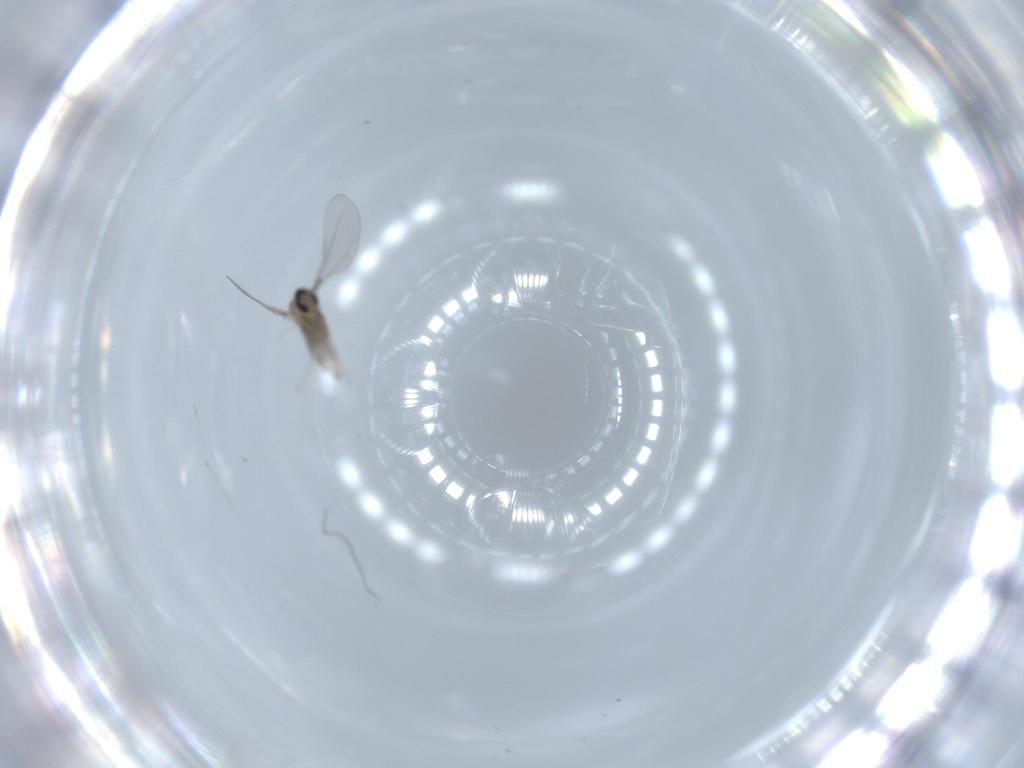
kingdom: Animalia
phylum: Arthropoda
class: Insecta
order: Diptera
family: Cecidomyiidae
